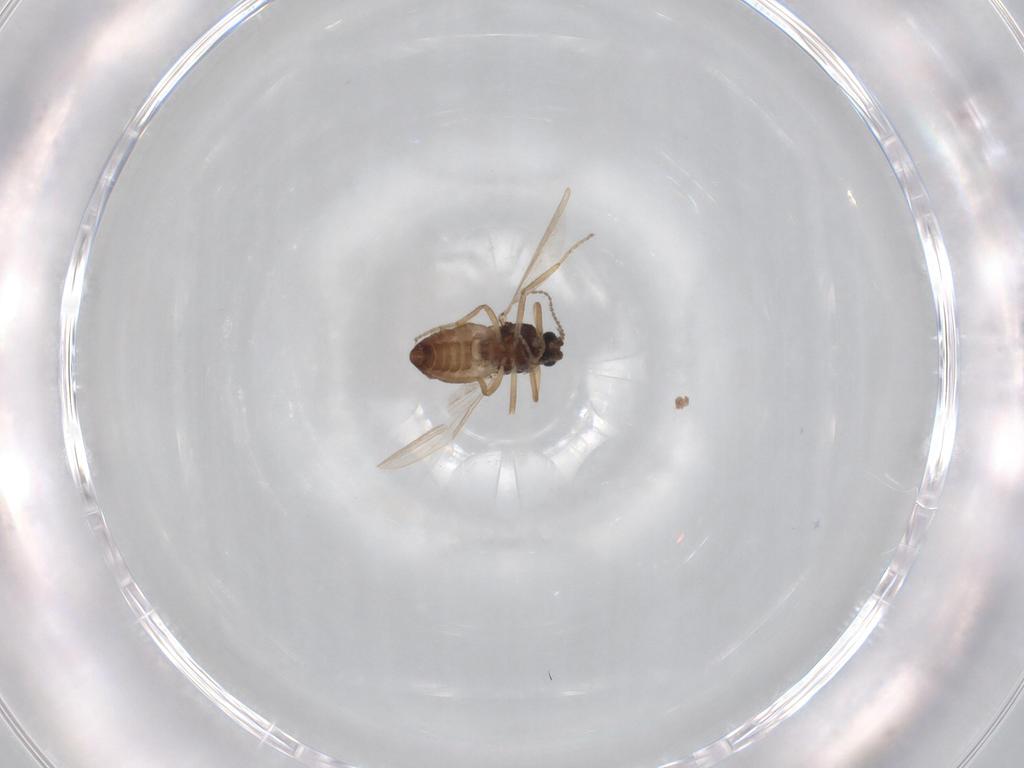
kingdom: Animalia
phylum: Arthropoda
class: Insecta
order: Diptera
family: Ceratopogonidae
